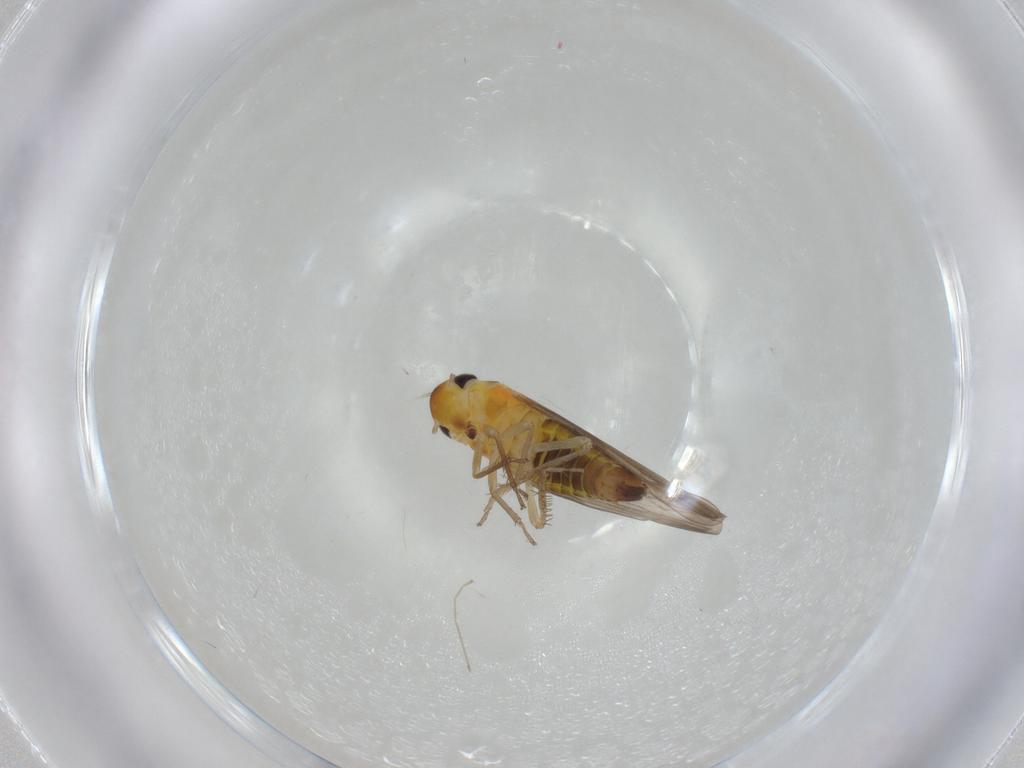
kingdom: Animalia
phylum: Arthropoda
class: Insecta
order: Hemiptera
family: Cicadellidae
